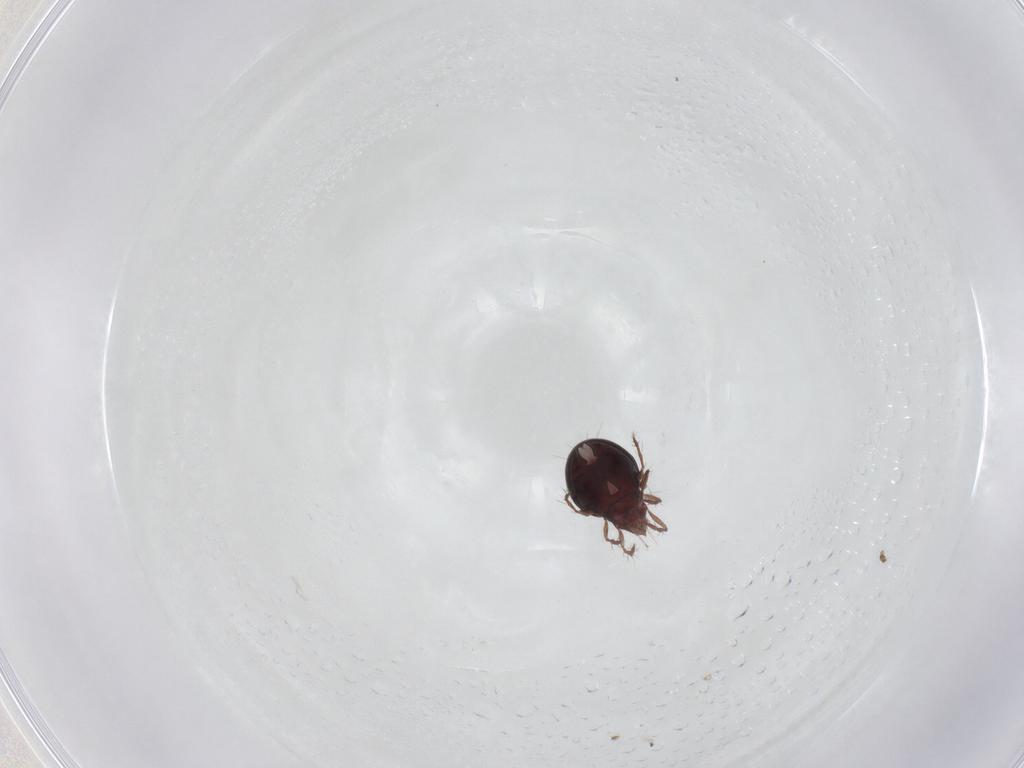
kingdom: Animalia
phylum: Arthropoda
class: Arachnida
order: Sarcoptiformes
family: Ceratoppiidae
